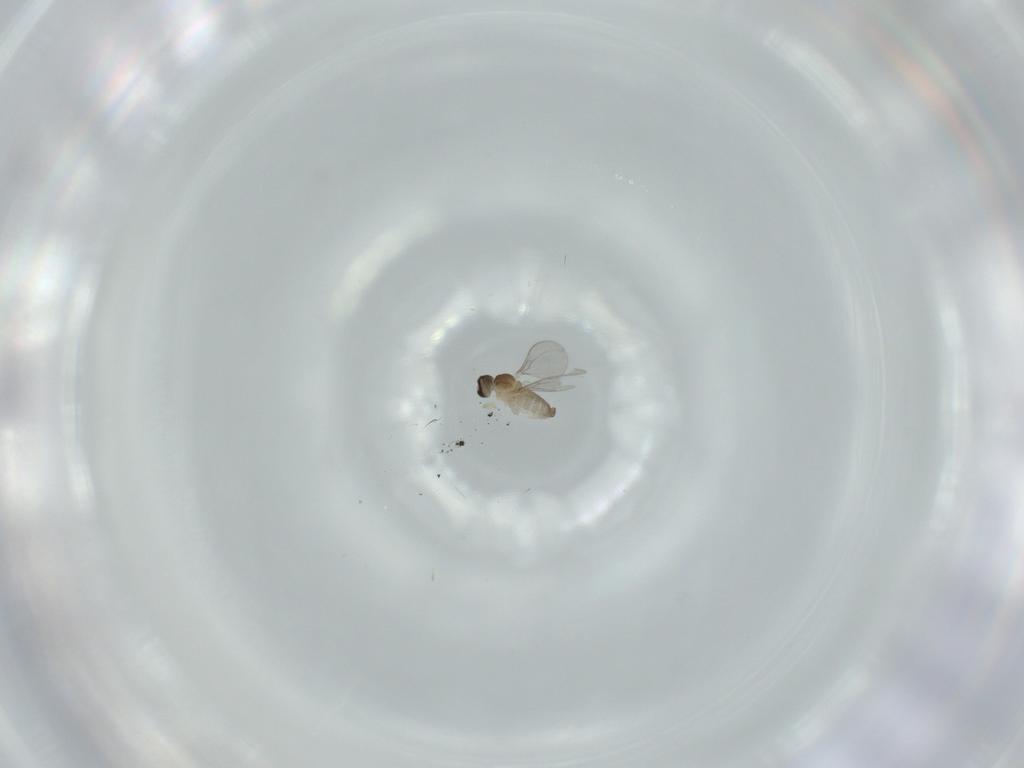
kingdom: Animalia
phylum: Arthropoda
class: Insecta
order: Diptera
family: Cecidomyiidae
